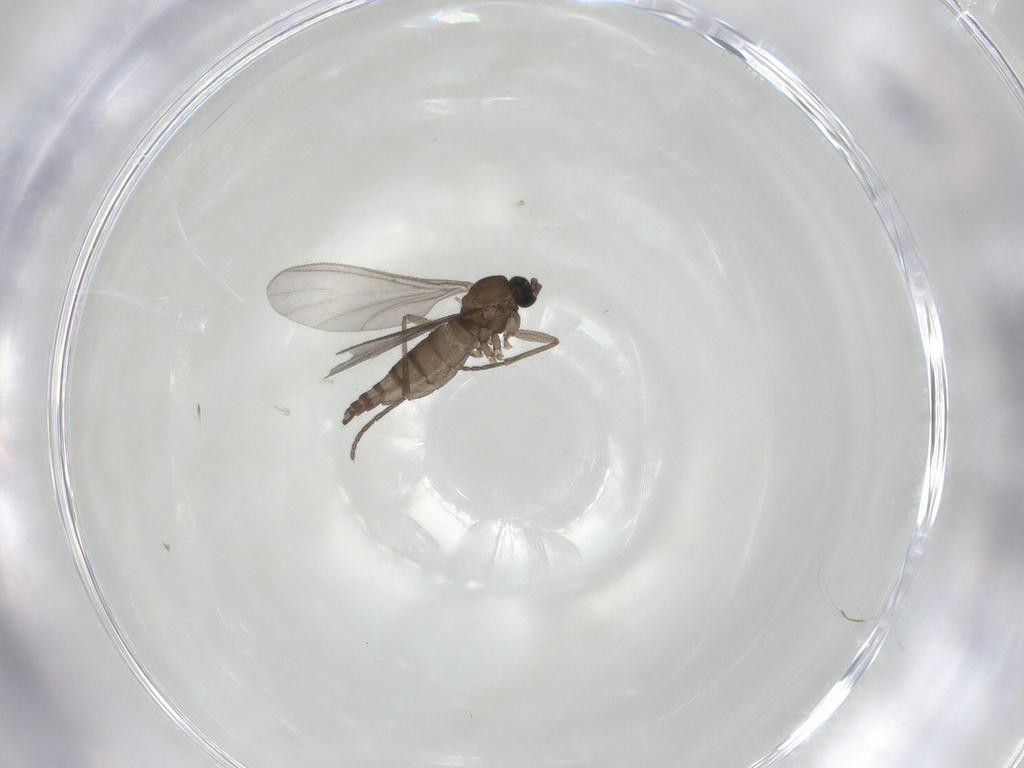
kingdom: Animalia
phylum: Arthropoda
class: Insecta
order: Diptera
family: Sciaridae
